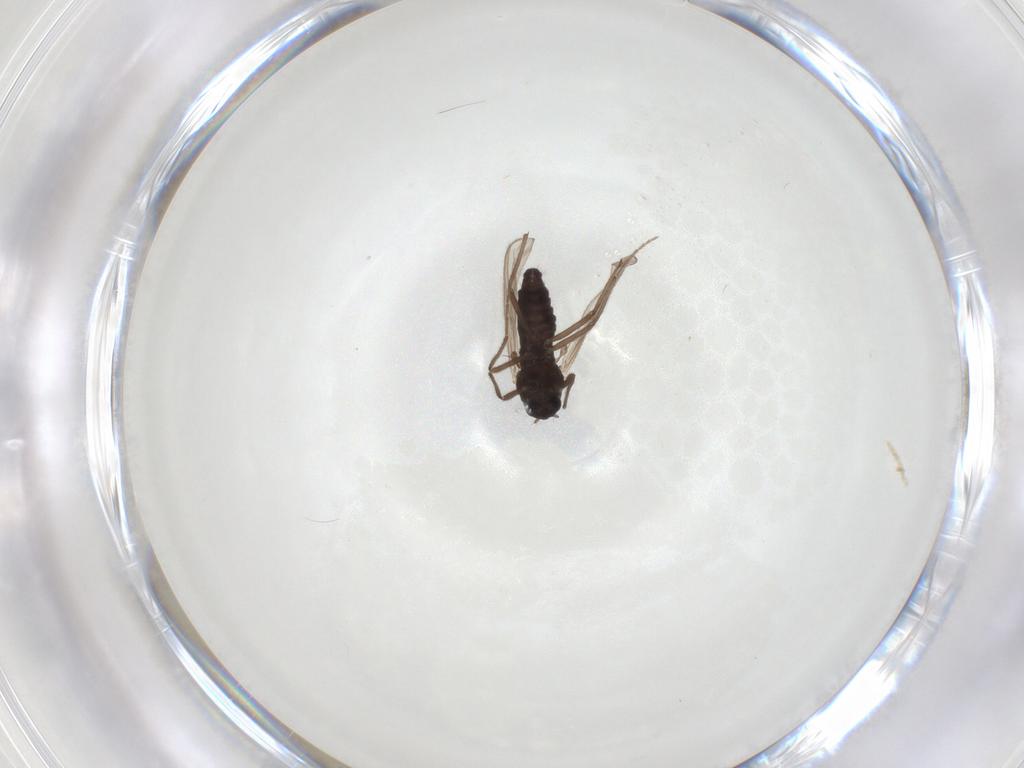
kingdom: Animalia
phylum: Arthropoda
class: Insecta
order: Diptera
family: Chironomidae
